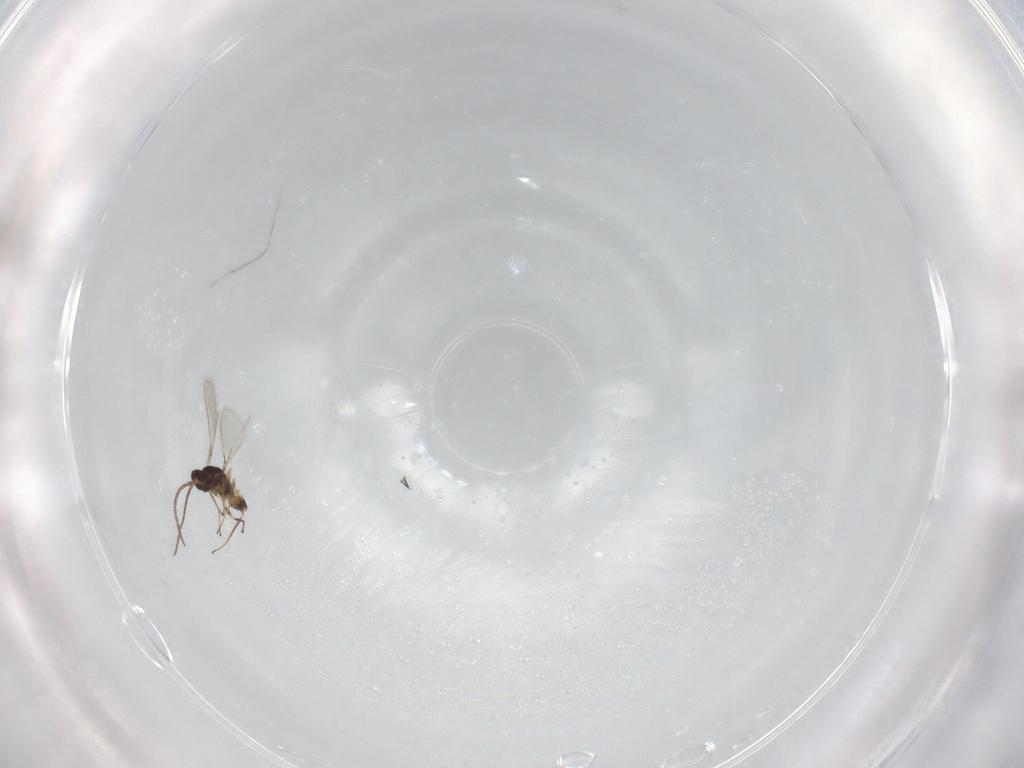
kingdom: Animalia
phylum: Arthropoda
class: Insecta
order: Hymenoptera
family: Mymaridae
